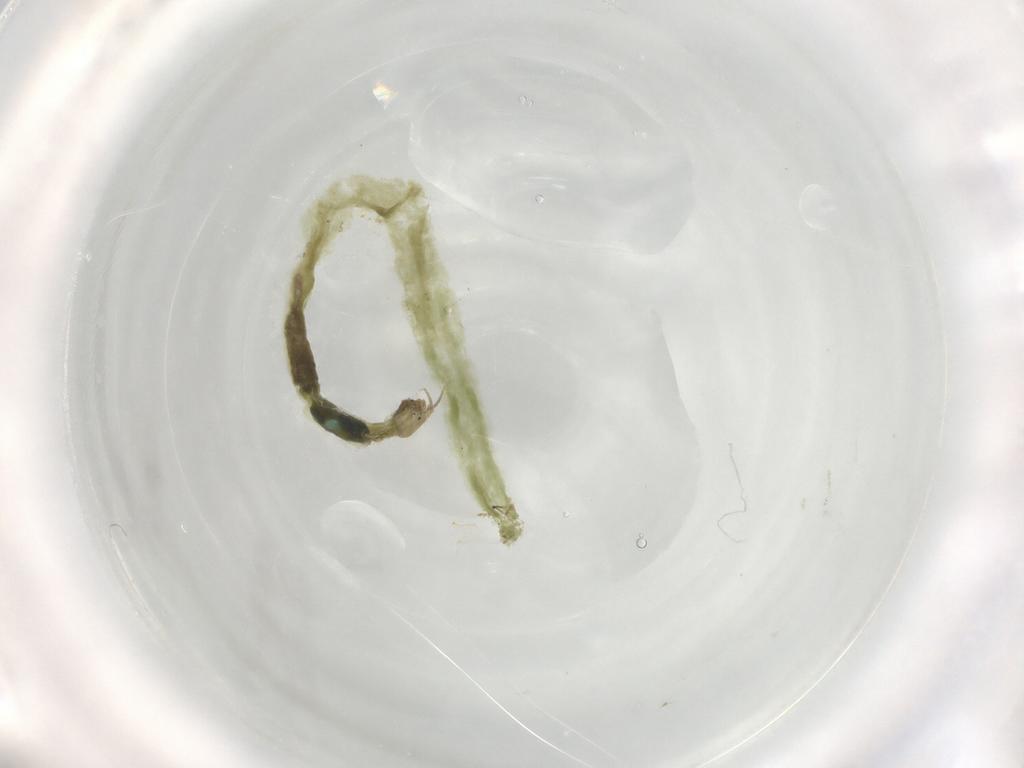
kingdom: Animalia
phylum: Arthropoda
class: Insecta
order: Diptera
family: Chironomidae
